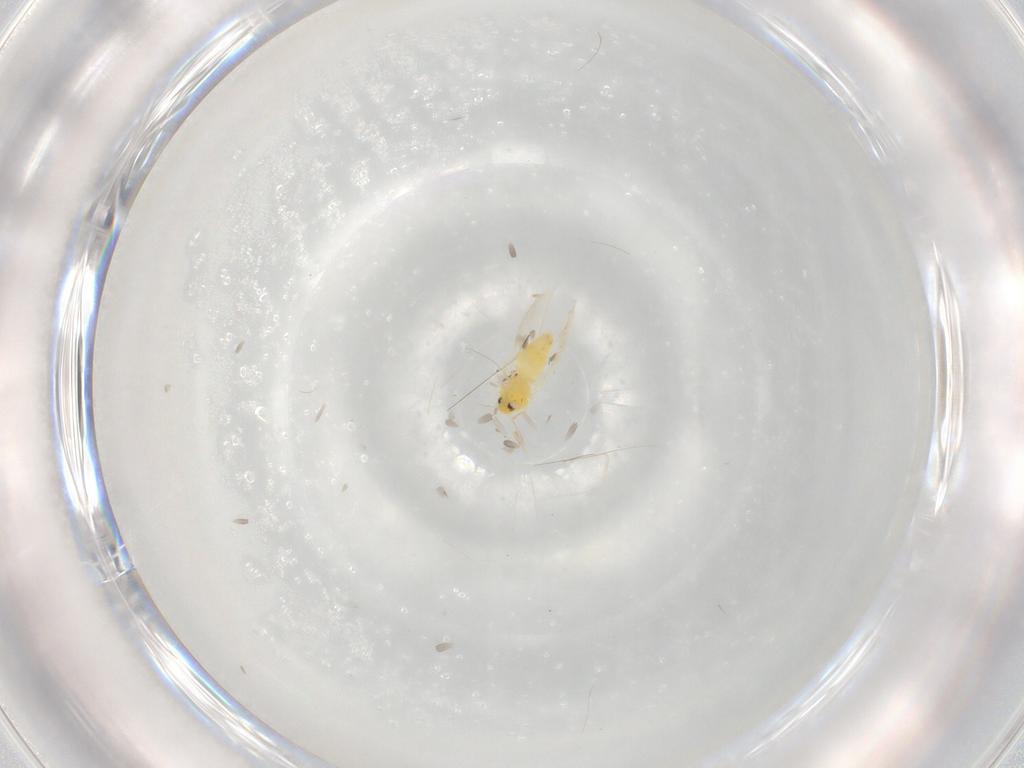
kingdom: Animalia
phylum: Arthropoda
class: Insecta
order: Hemiptera
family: Aleyrodidae
